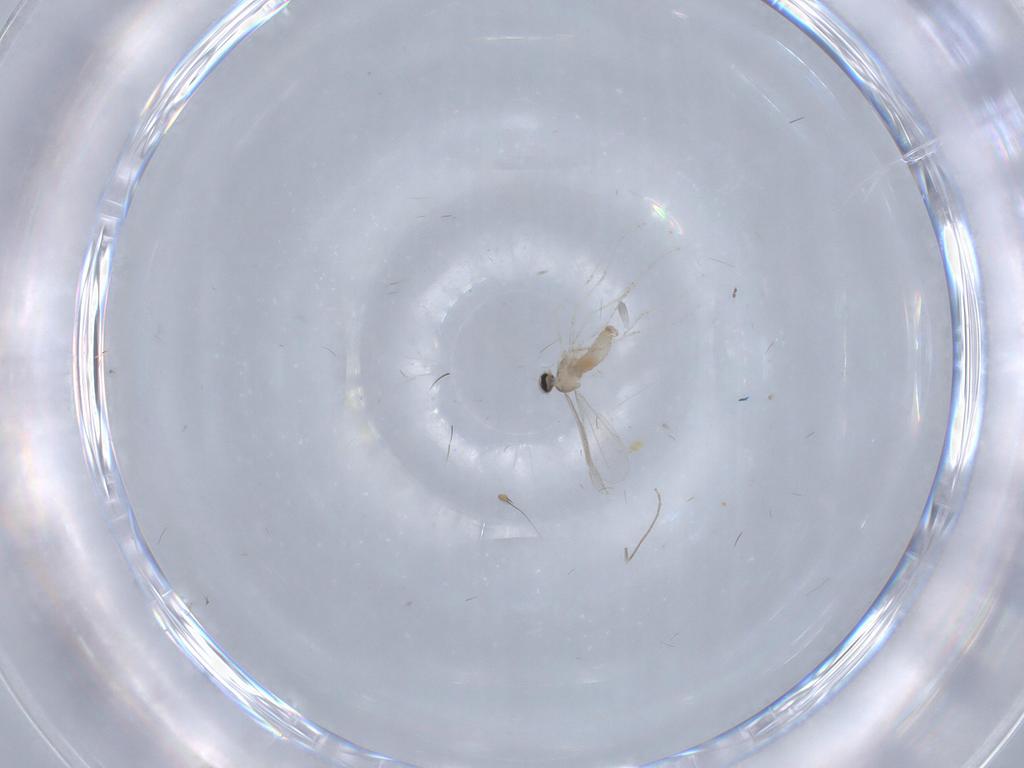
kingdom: Animalia
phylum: Arthropoda
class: Insecta
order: Diptera
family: Dolichopodidae
